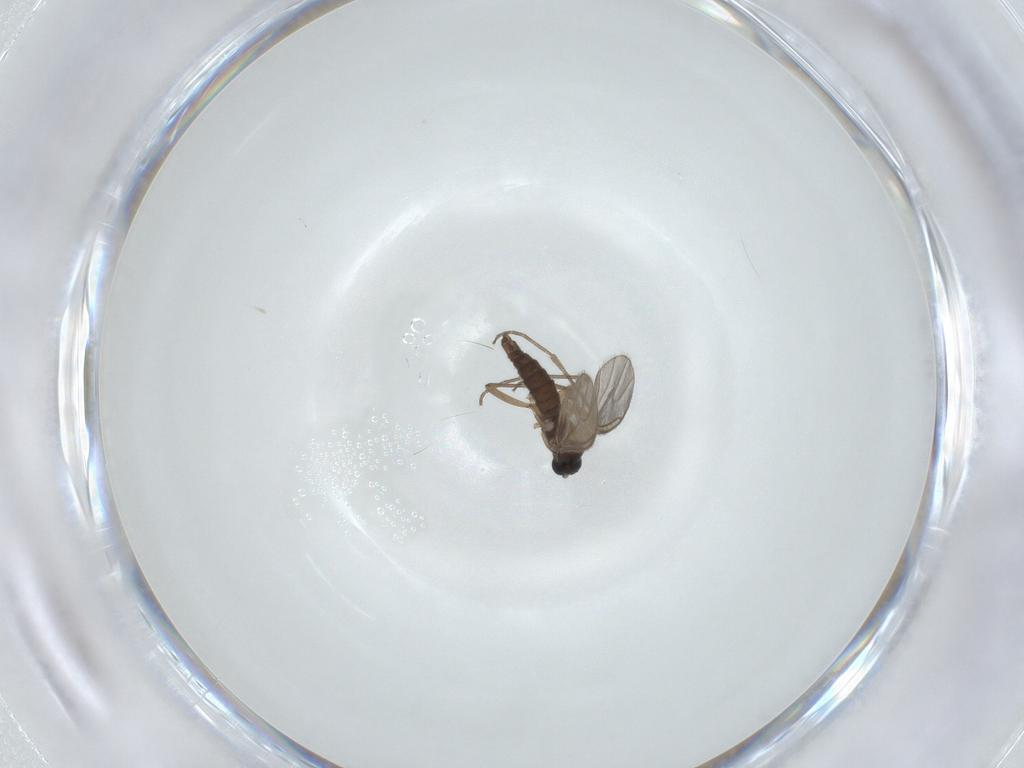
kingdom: Animalia
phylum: Arthropoda
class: Insecta
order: Diptera
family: Sciaridae
